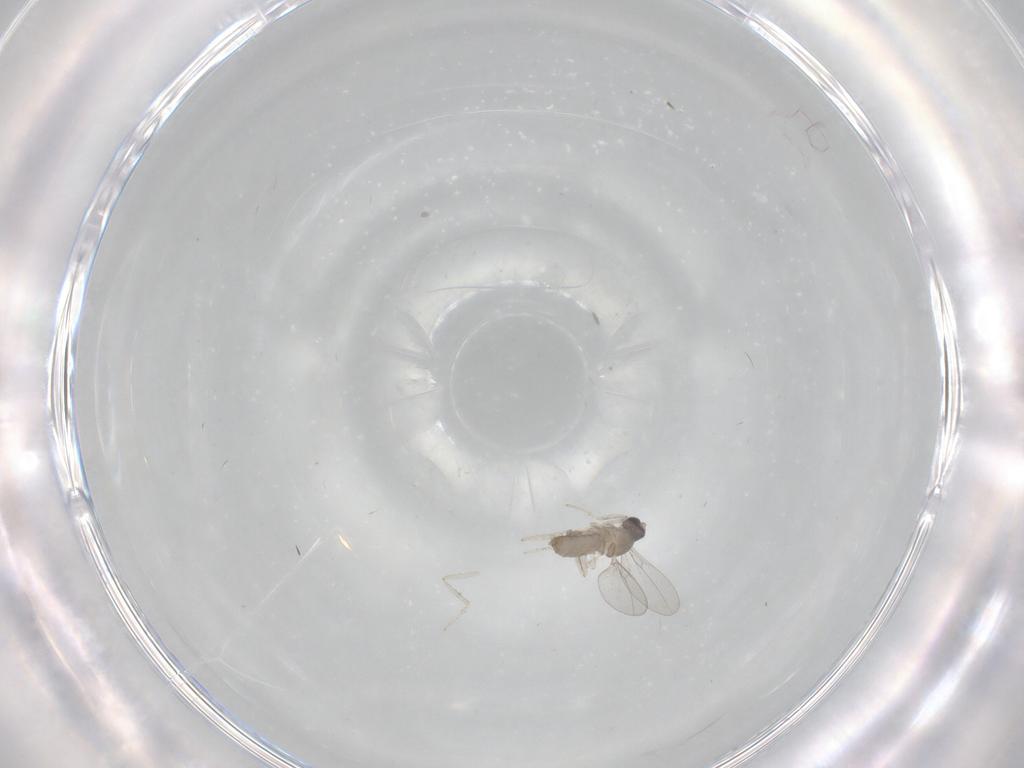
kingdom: Animalia
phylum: Arthropoda
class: Insecta
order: Diptera
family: Cecidomyiidae
